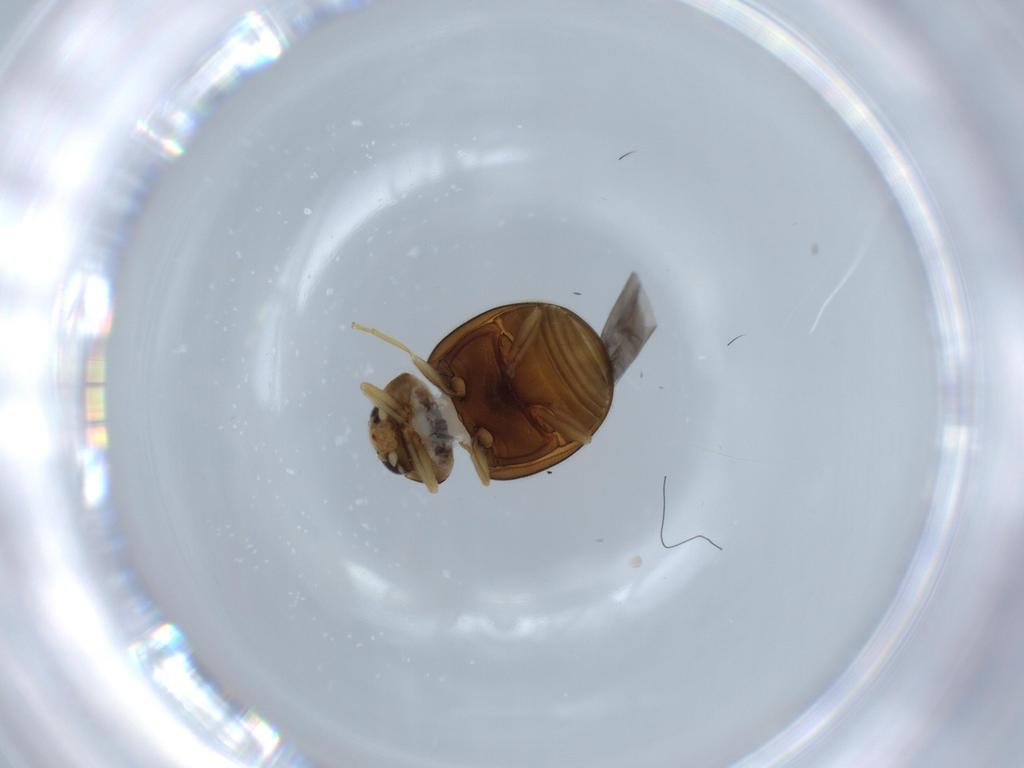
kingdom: Animalia
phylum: Arthropoda
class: Insecta
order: Coleoptera
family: Coccinellidae
